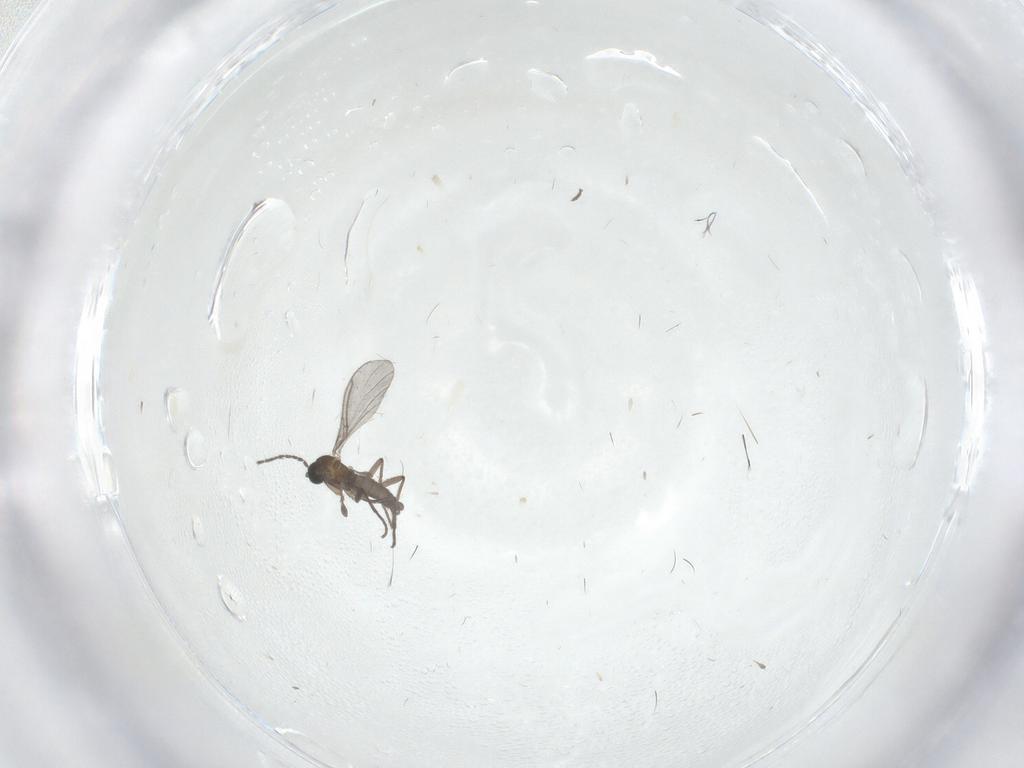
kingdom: Animalia
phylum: Arthropoda
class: Insecta
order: Diptera
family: Sciaridae
